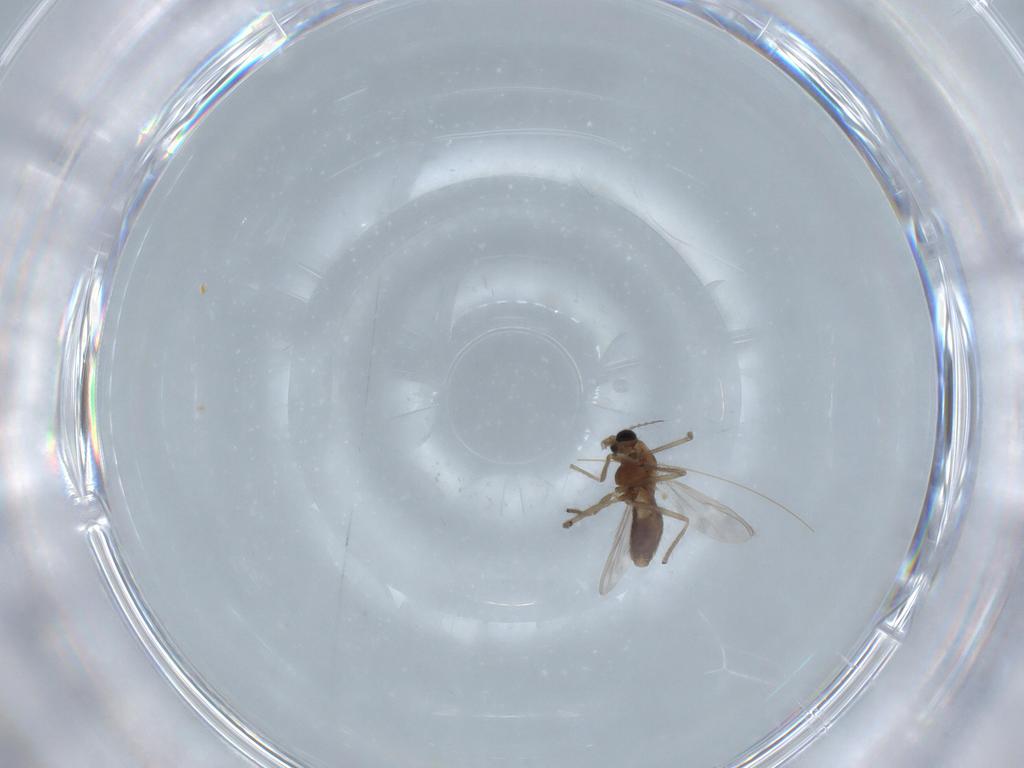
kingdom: Animalia
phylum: Arthropoda
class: Insecta
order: Diptera
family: Chironomidae
